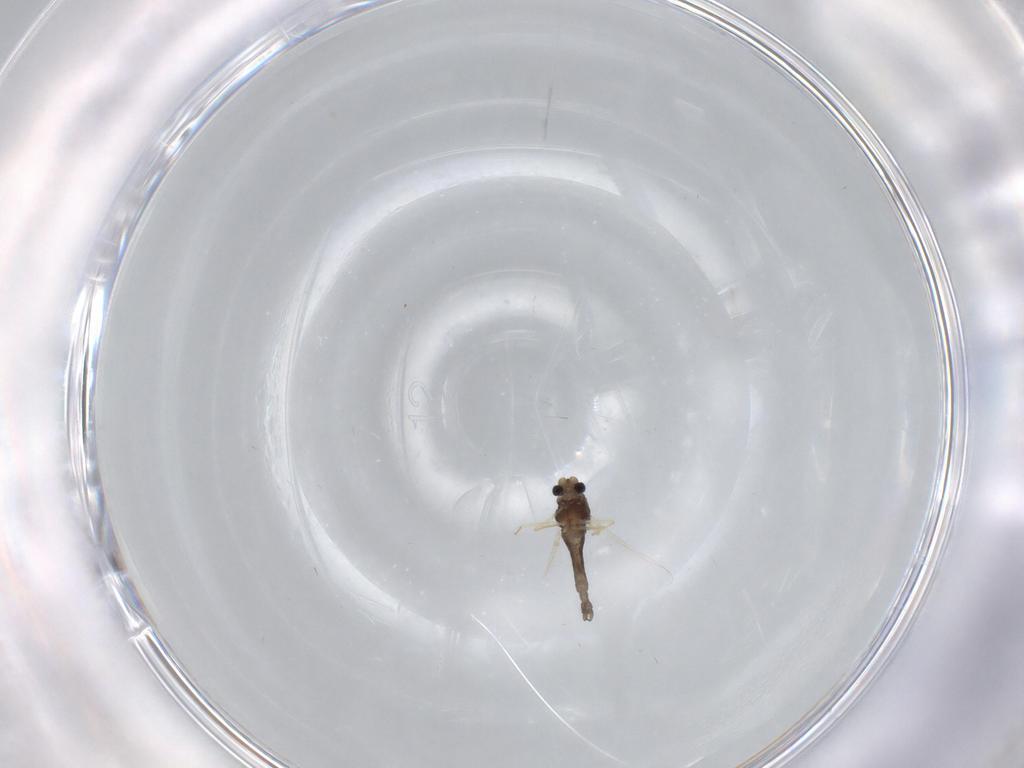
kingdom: Animalia
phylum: Arthropoda
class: Insecta
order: Diptera
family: Chironomidae
